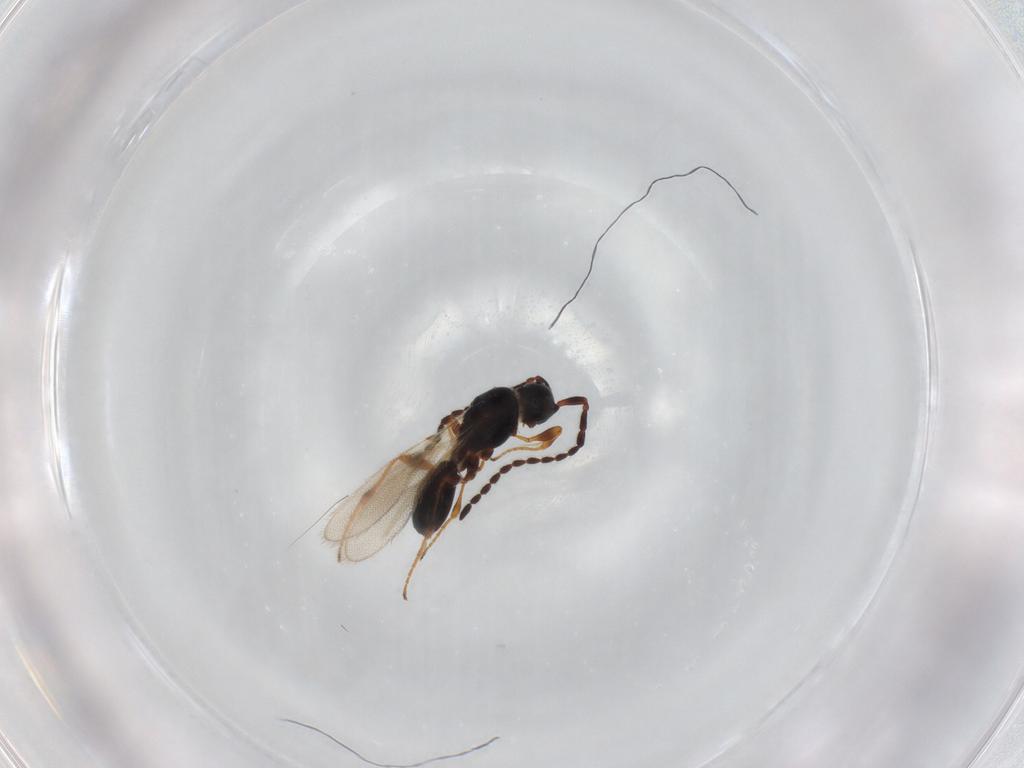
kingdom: Animalia
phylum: Arthropoda
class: Insecta
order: Hymenoptera
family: Diapriidae
